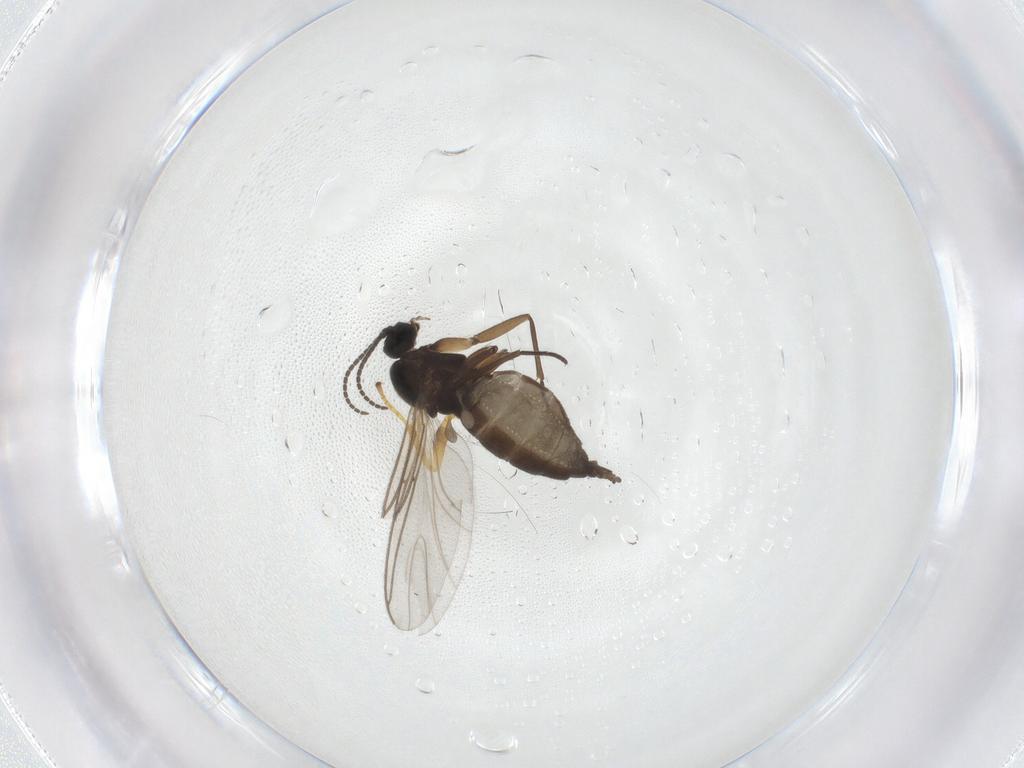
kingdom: Animalia
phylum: Arthropoda
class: Insecta
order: Diptera
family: Sciaridae
